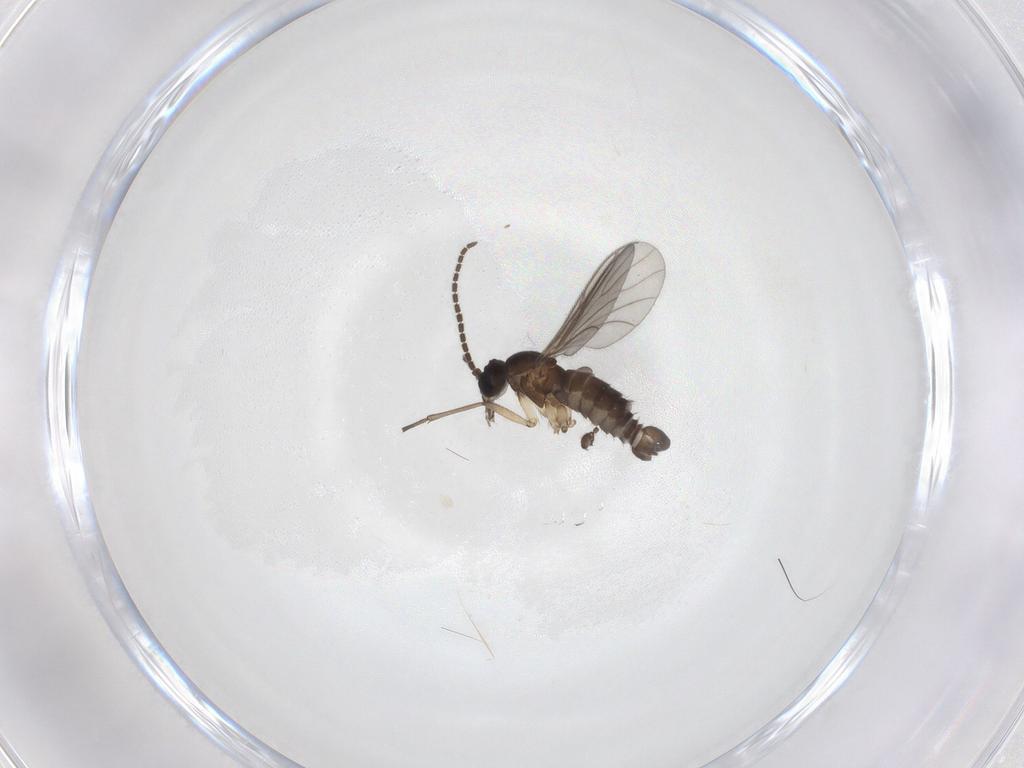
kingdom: Animalia
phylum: Arthropoda
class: Insecta
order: Diptera
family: Sciaridae
